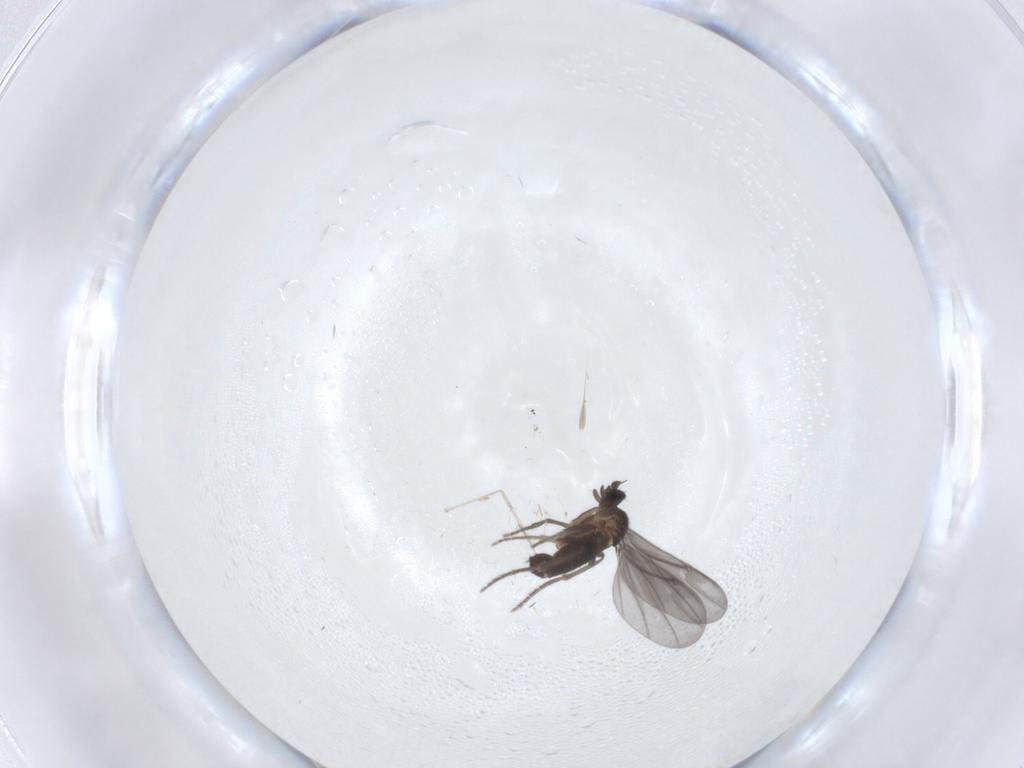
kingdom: Animalia
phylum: Arthropoda
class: Insecta
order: Diptera
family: Phoridae
